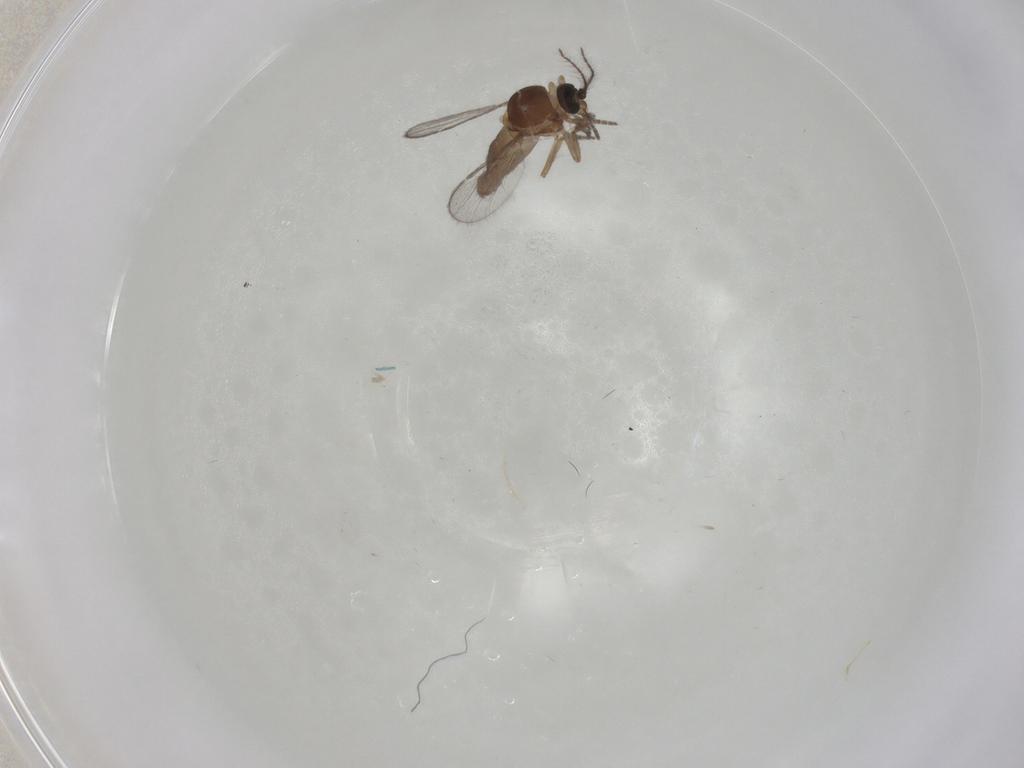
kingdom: Animalia
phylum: Arthropoda
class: Insecta
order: Diptera
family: Ceratopogonidae
